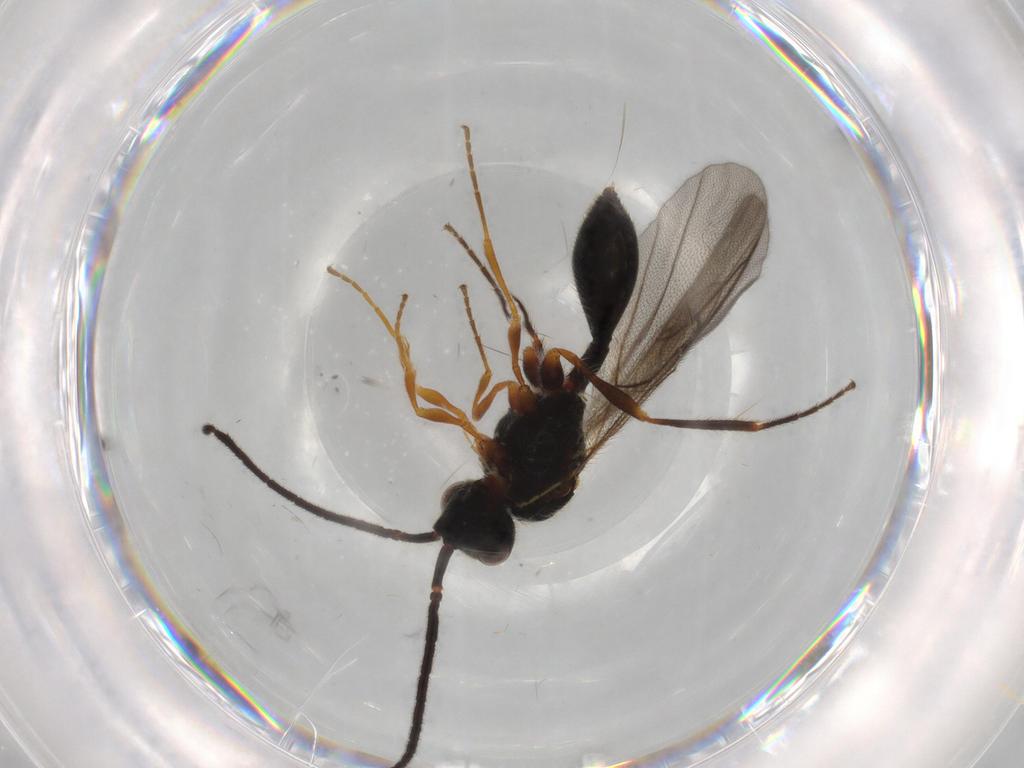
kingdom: Animalia
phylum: Arthropoda
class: Insecta
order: Hymenoptera
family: Diapriidae
